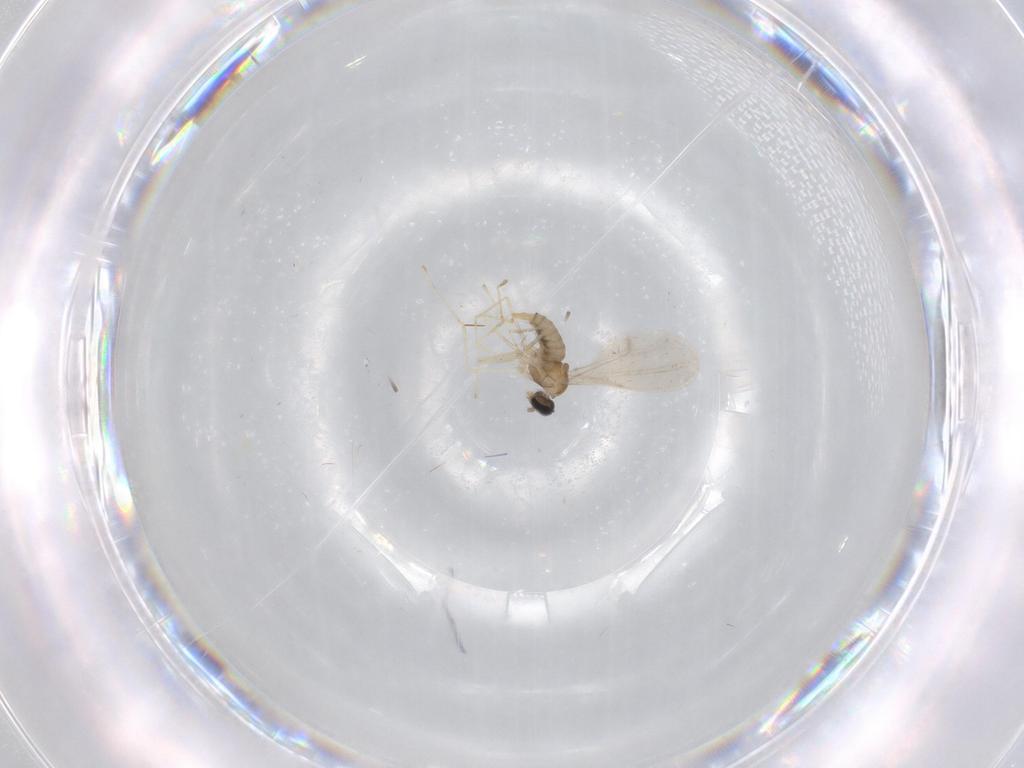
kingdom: Animalia
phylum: Arthropoda
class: Insecta
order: Diptera
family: Cecidomyiidae
